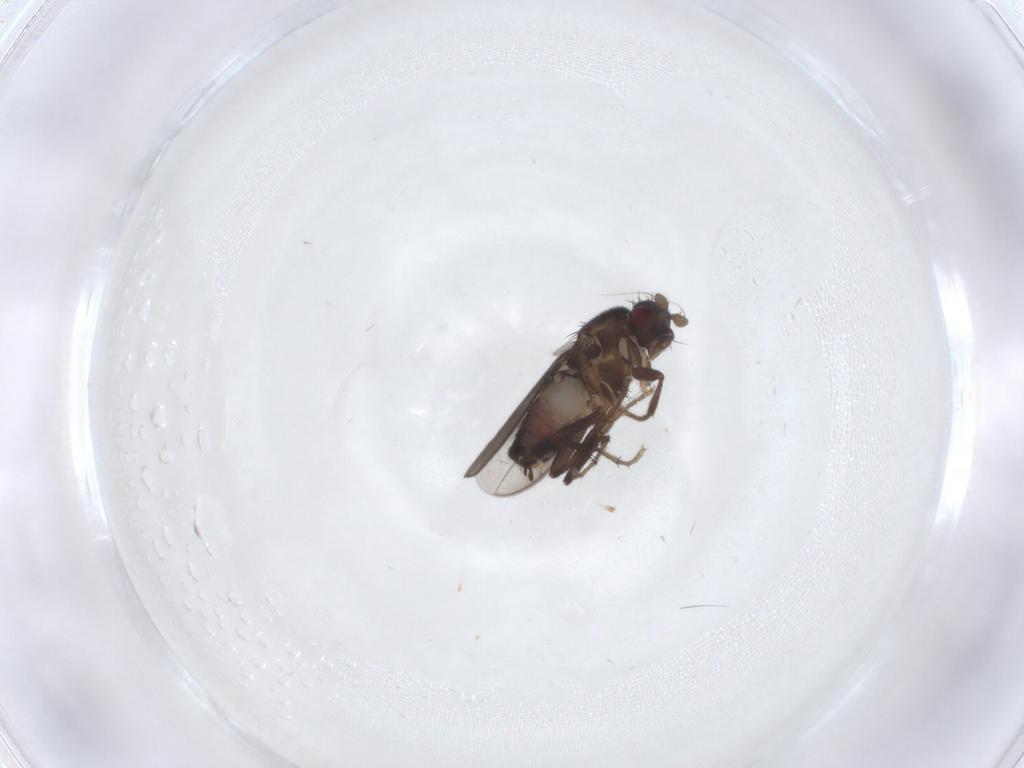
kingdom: Animalia
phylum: Arthropoda
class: Insecta
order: Diptera
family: Sphaeroceridae
